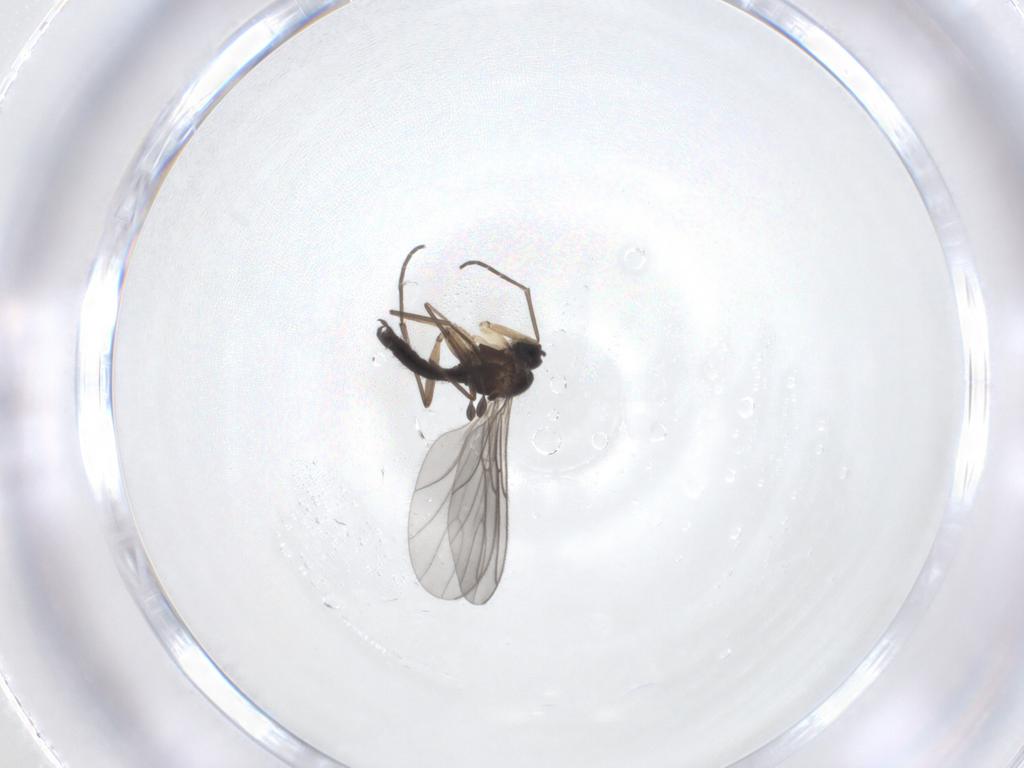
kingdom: Animalia
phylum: Arthropoda
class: Insecta
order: Diptera
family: Sciaridae
